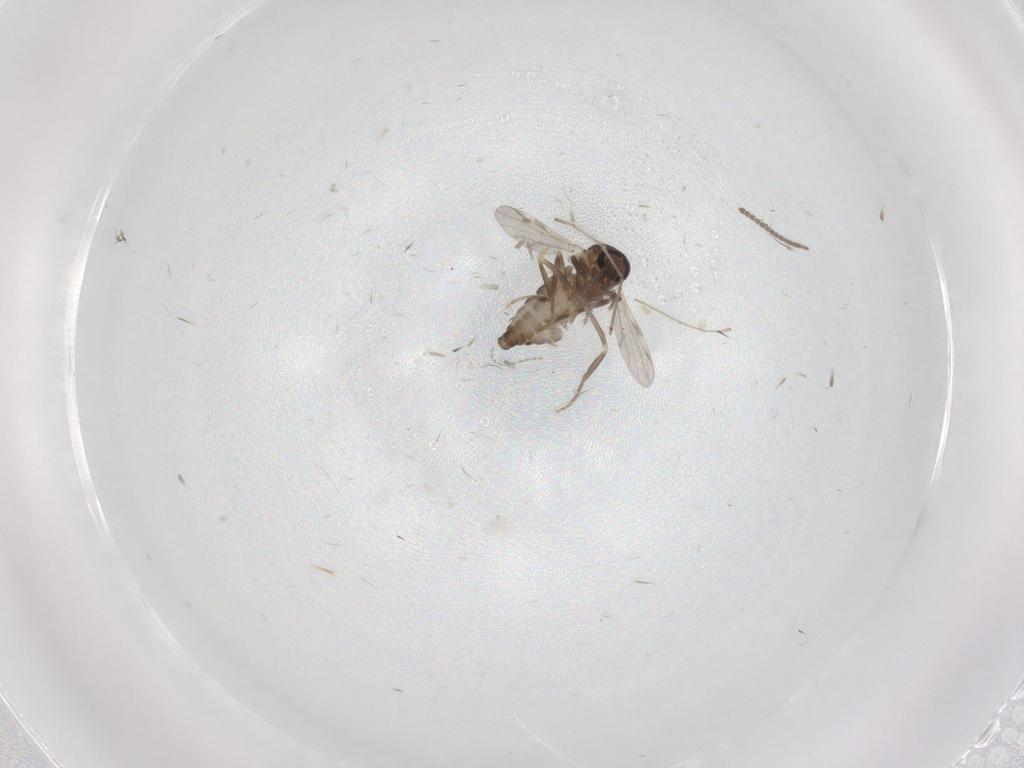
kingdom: Animalia
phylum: Arthropoda
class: Insecta
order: Diptera
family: Ceratopogonidae
